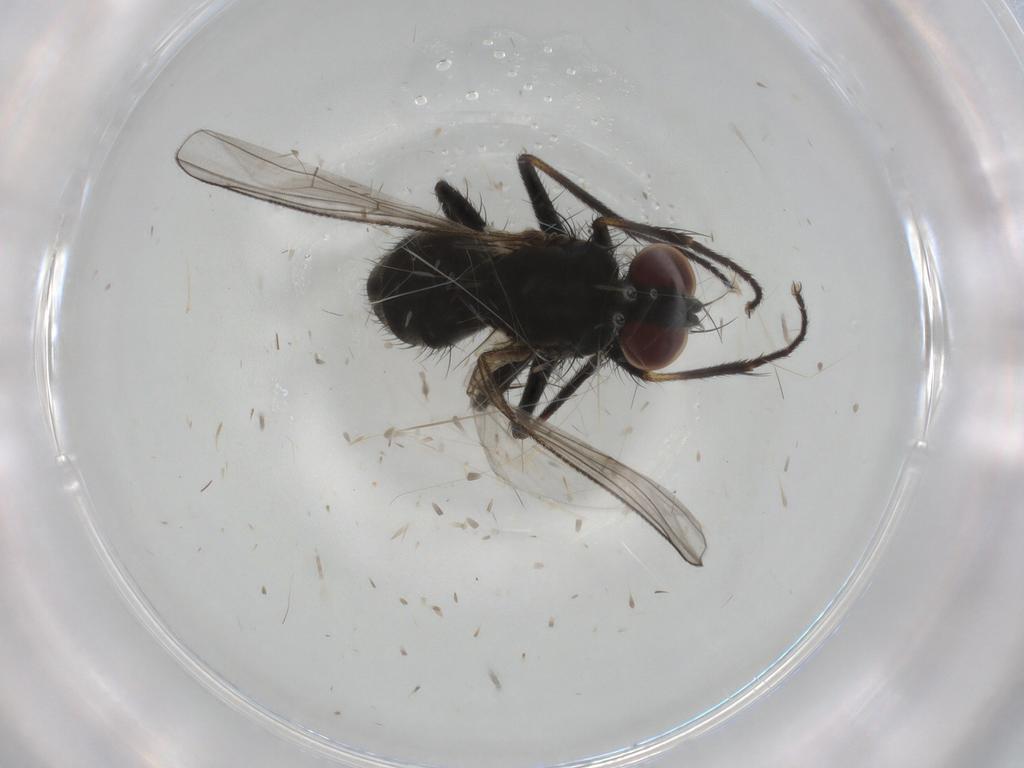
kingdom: Animalia
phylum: Arthropoda
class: Insecta
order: Diptera
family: Muscidae
